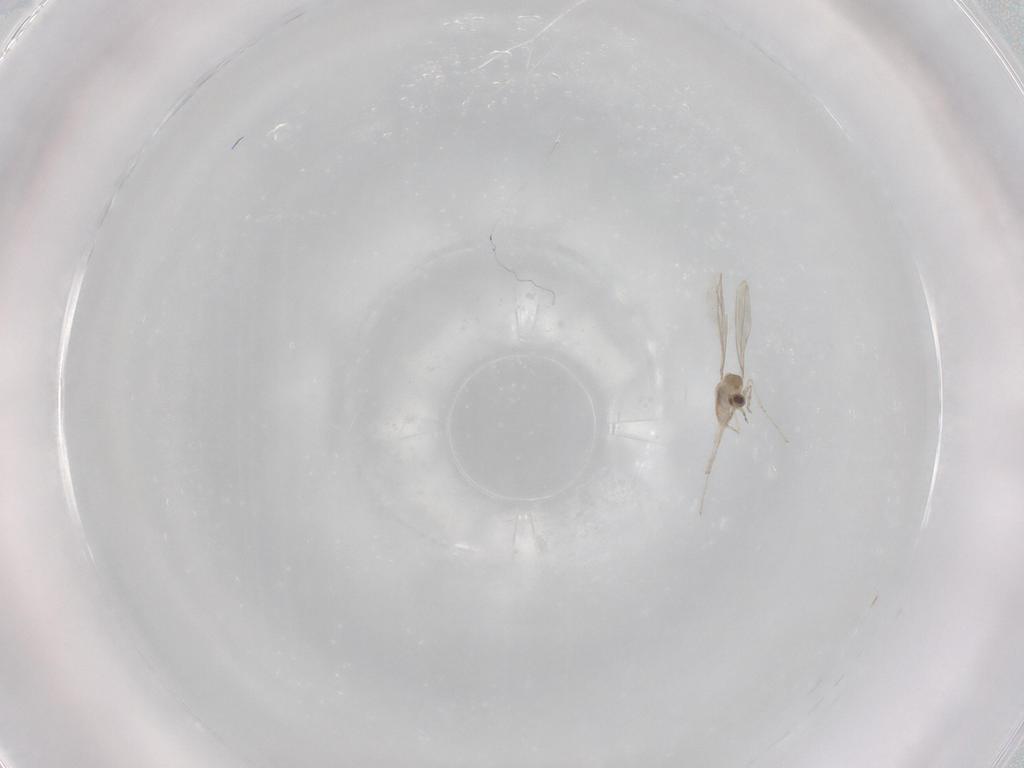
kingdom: Animalia
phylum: Arthropoda
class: Insecta
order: Diptera
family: Cecidomyiidae
